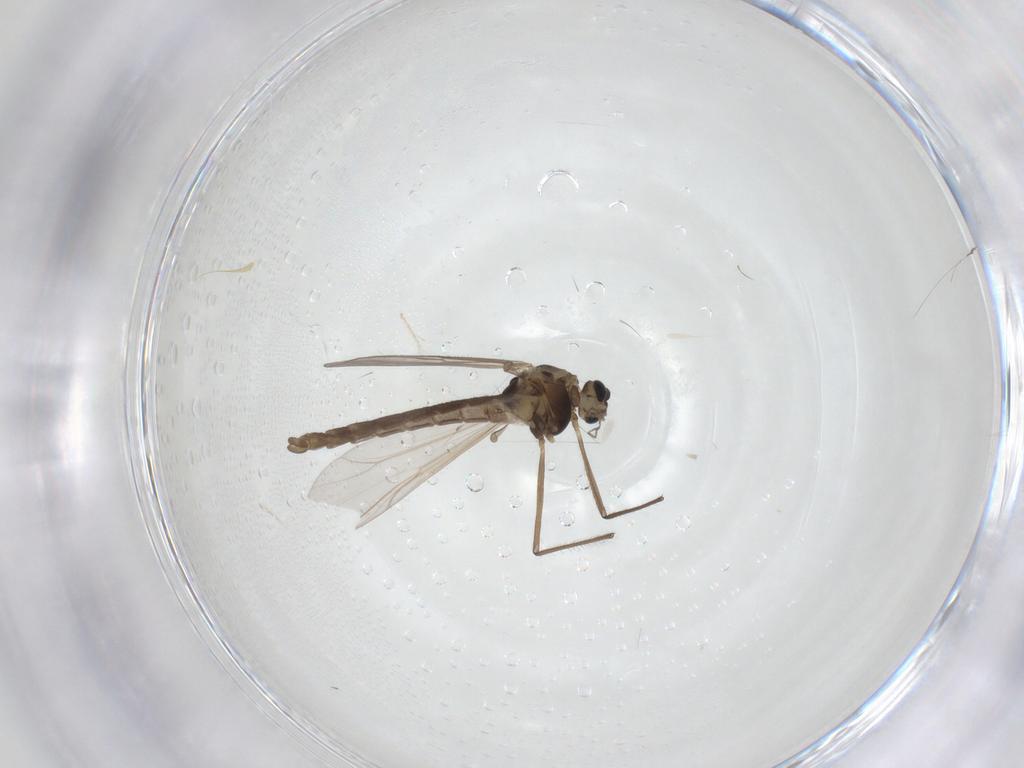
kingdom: Animalia
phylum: Arthropoda
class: Insecta
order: Diptera
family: Chironomidae
